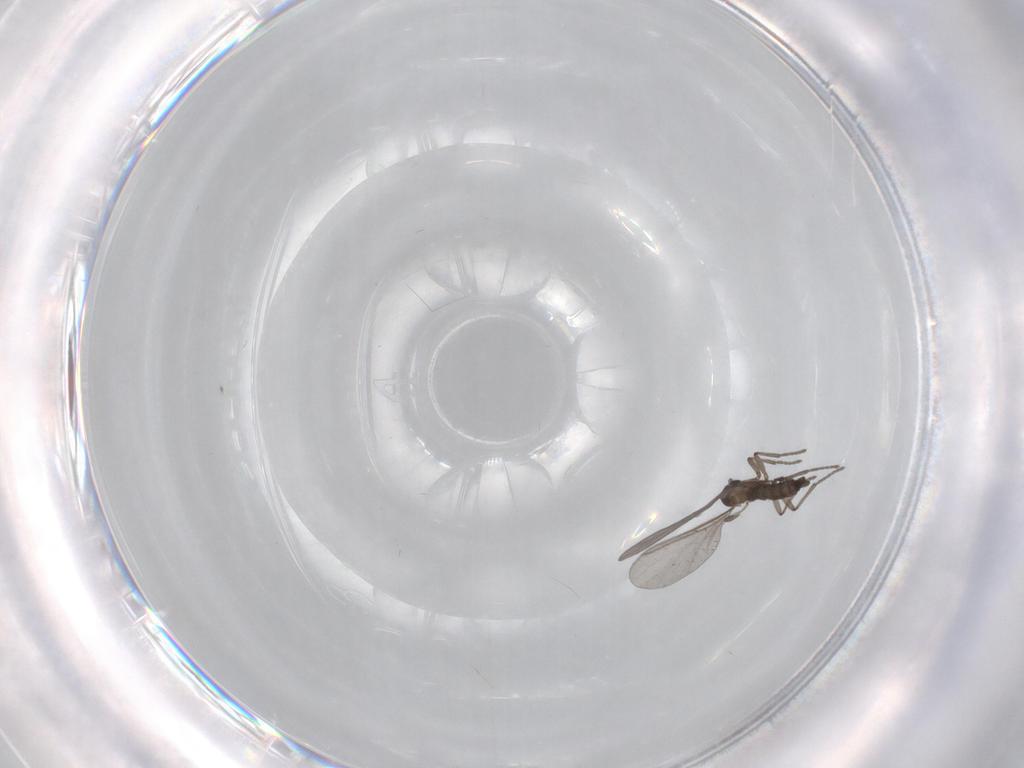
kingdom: Animalia
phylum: Arthropoda
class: Insecta
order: Diptera
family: Sciaridae
